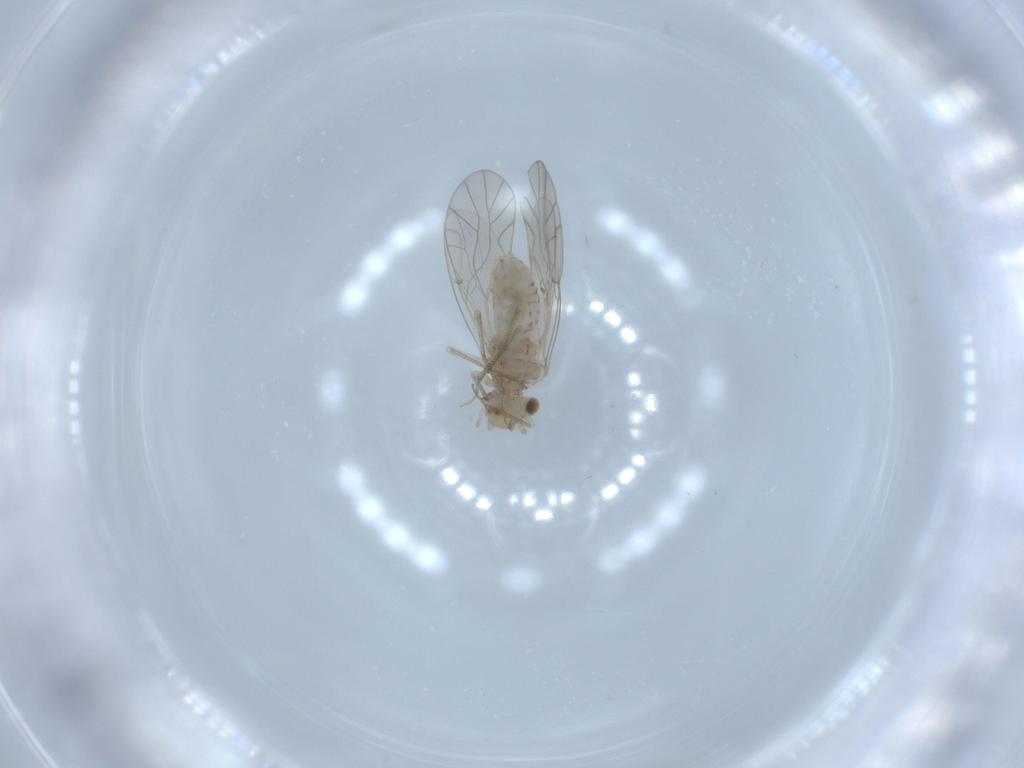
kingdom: Animalia
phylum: Arthropoda
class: Insecta
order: Psocodea
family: Lachesillidae
